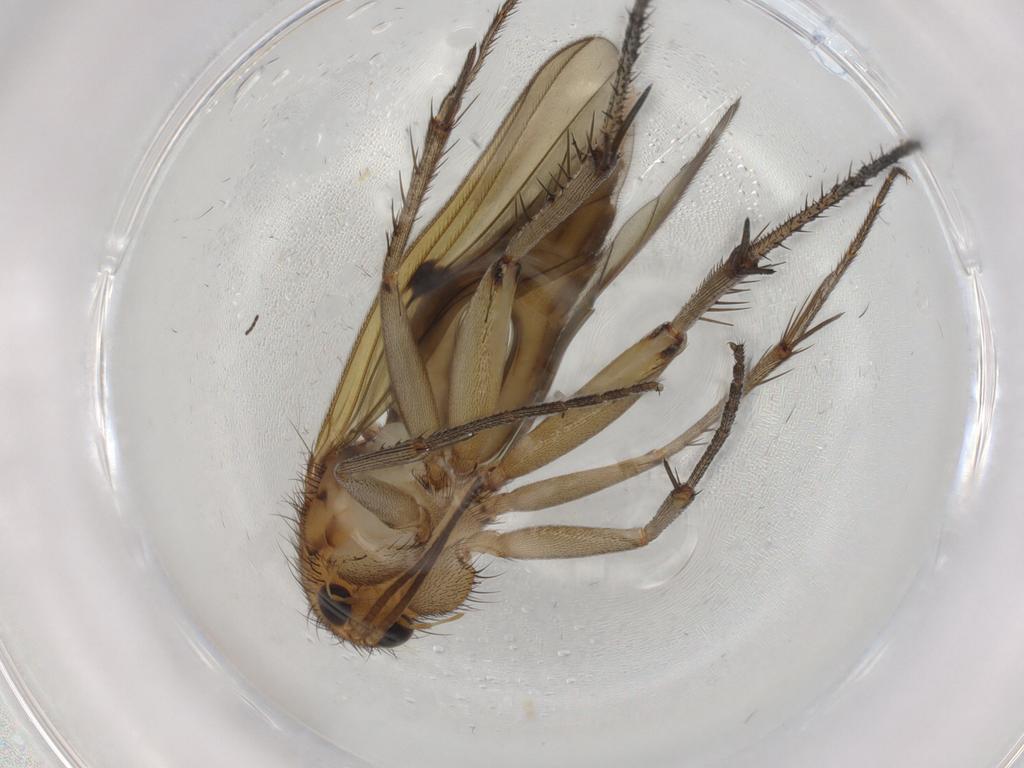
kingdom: Animalia
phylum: Arthropoda
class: Insecta
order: Diptera
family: Mycetophilidae
